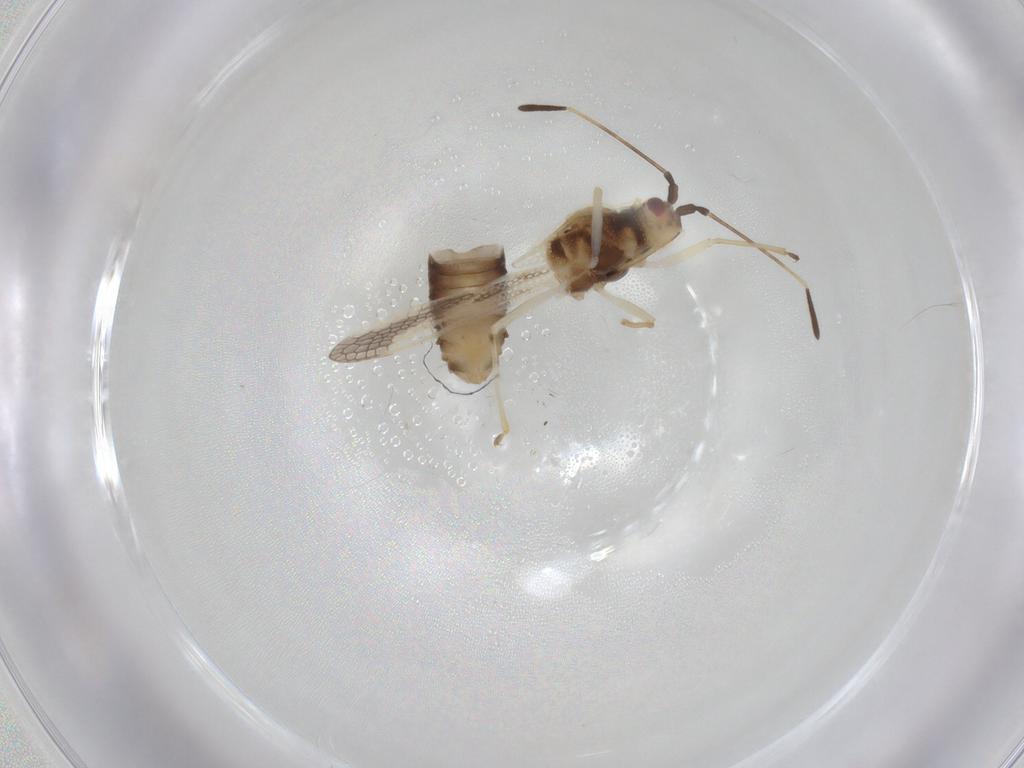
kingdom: Animalia
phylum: Arthropoda
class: Insecta
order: Hemiptera
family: Tingidae
